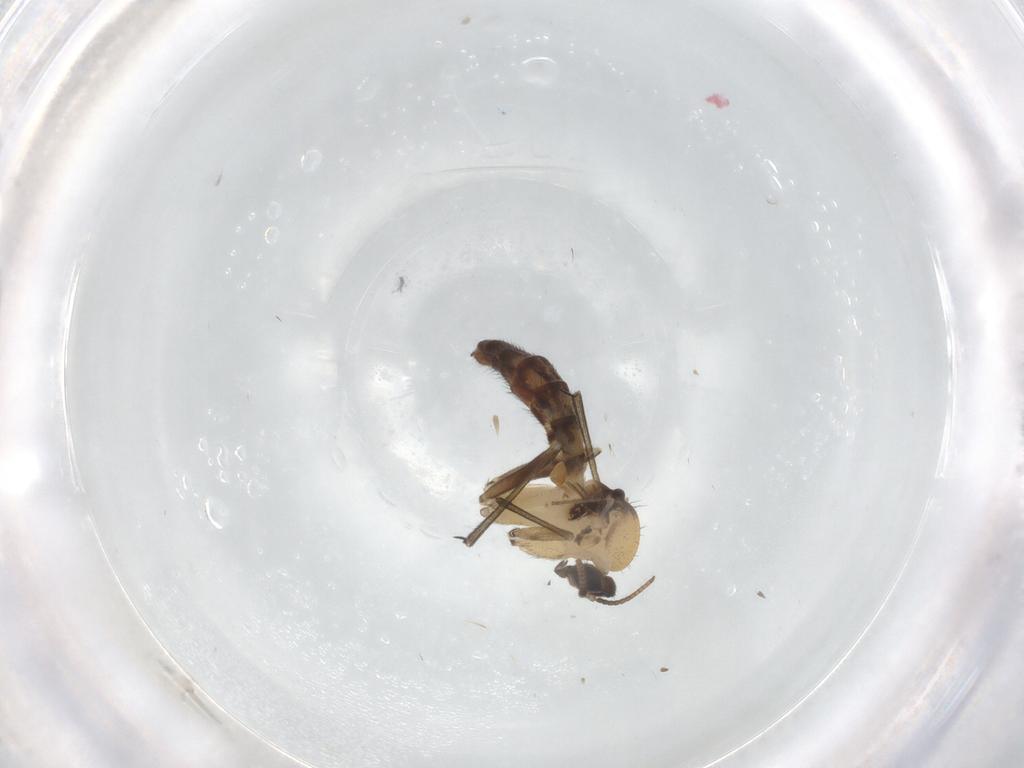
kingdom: Animalia
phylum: Arthropoda
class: Insecta
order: Diptera
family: Keroplatidae
